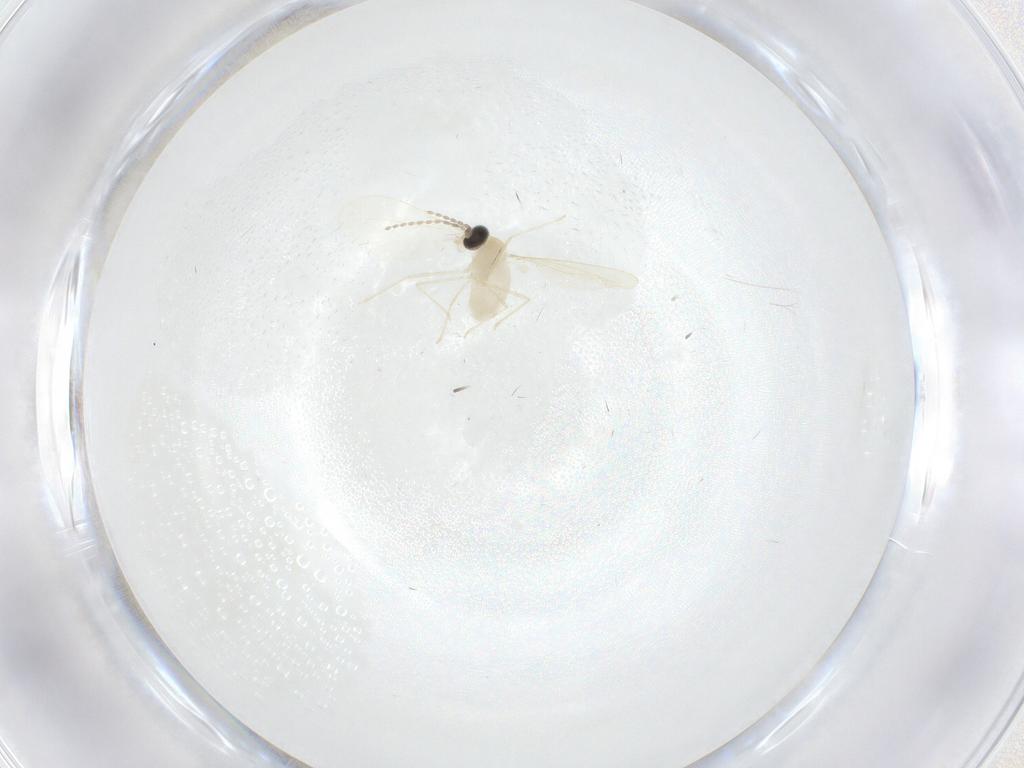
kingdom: Animalia
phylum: Arthropoda
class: Insecta
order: Diptera
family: Cecidomyiidae
